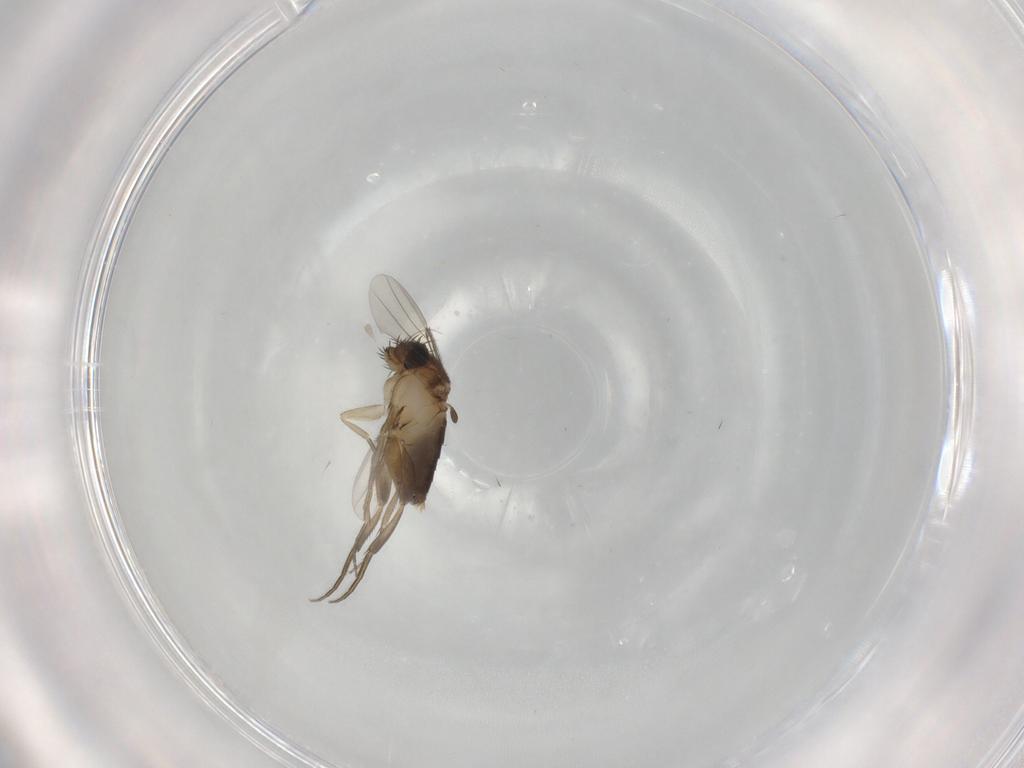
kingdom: Animalia
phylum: Arthropoda
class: Insecta
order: Diptera
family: Phoridae
